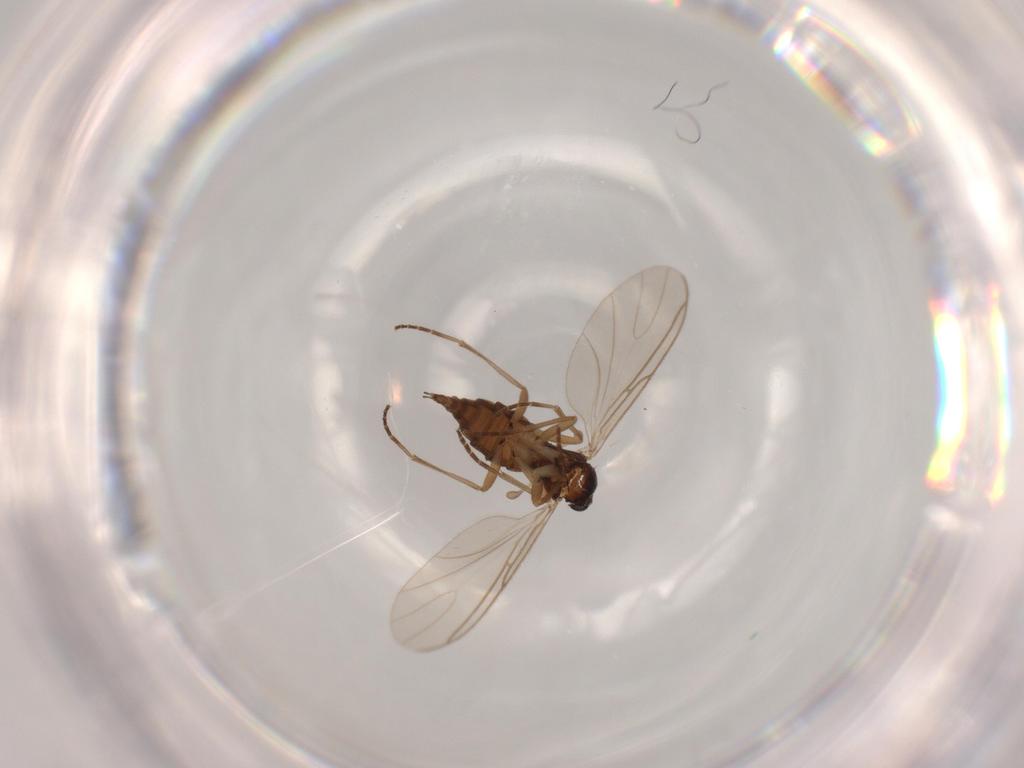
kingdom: Animalia
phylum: Arthropoda
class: Insecta
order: Diptera
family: Sciaridae
